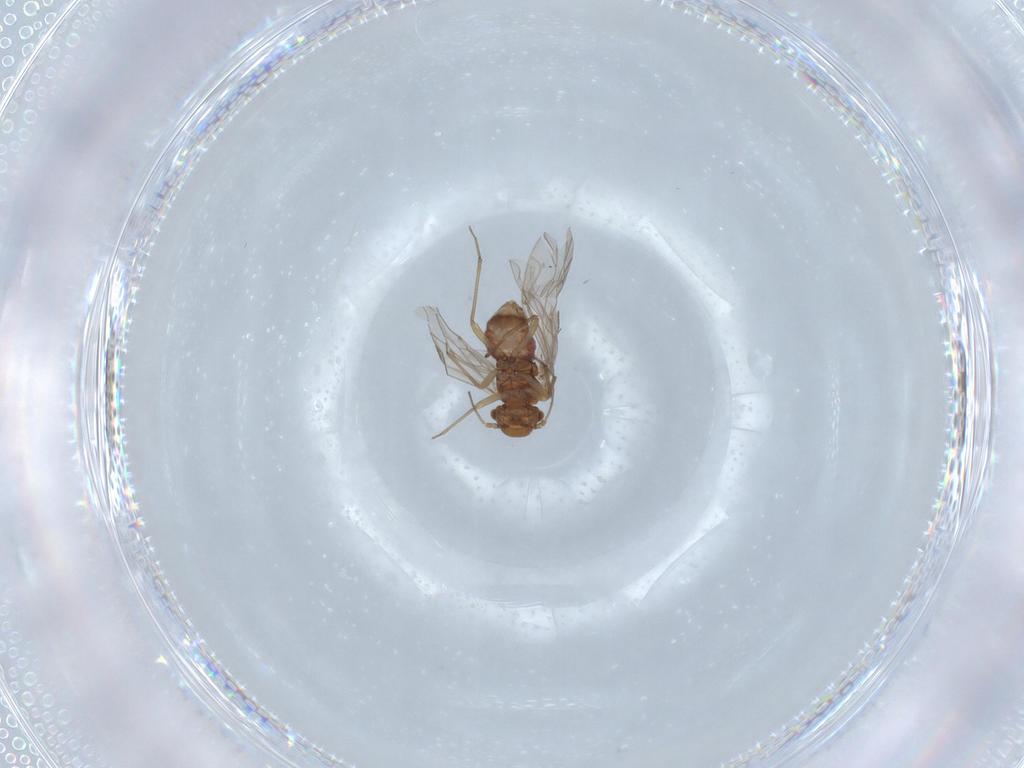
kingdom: Animalia
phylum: Arthropoda
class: Insecta
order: Psocodea
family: Lachesillidae
